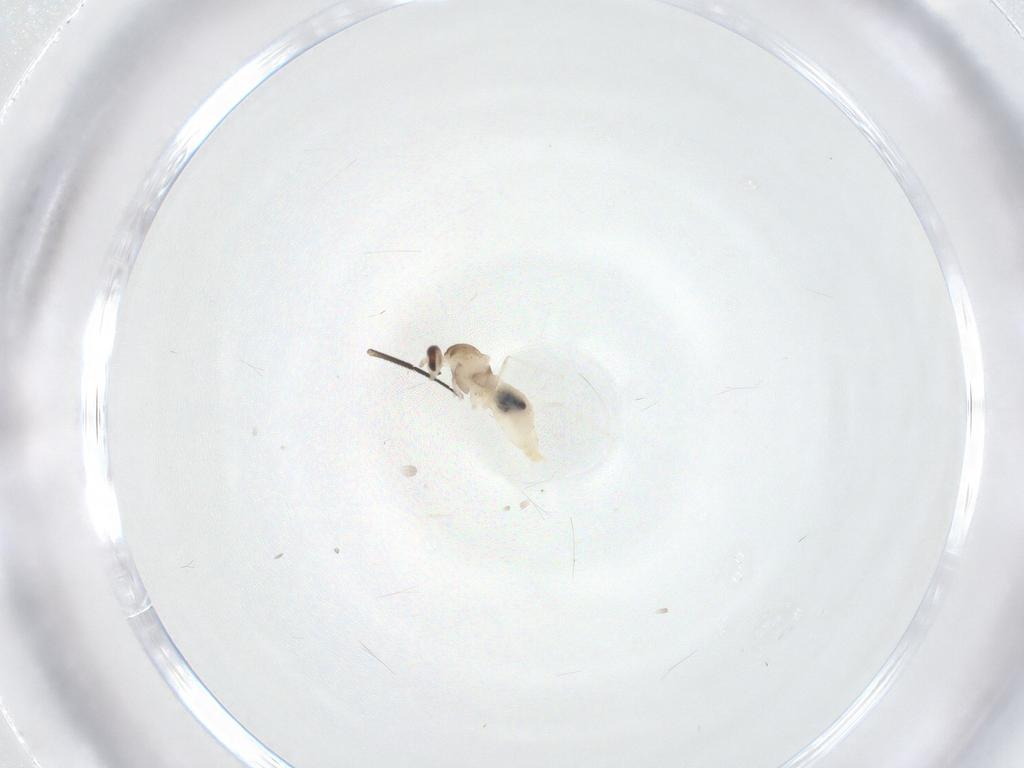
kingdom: Animalia
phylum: Arthropoda
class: Insecta
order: Diptera
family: Cecidomyiidae
